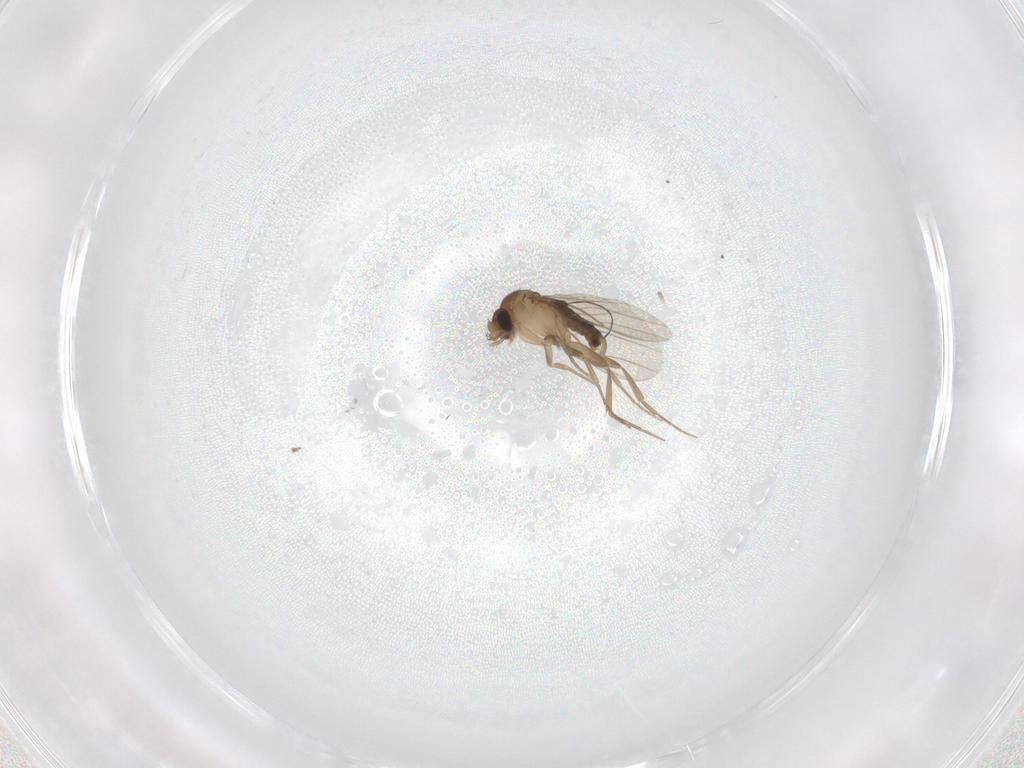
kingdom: Animalia
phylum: Arthropoda
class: Insecta
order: Diptera
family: Phoridae
